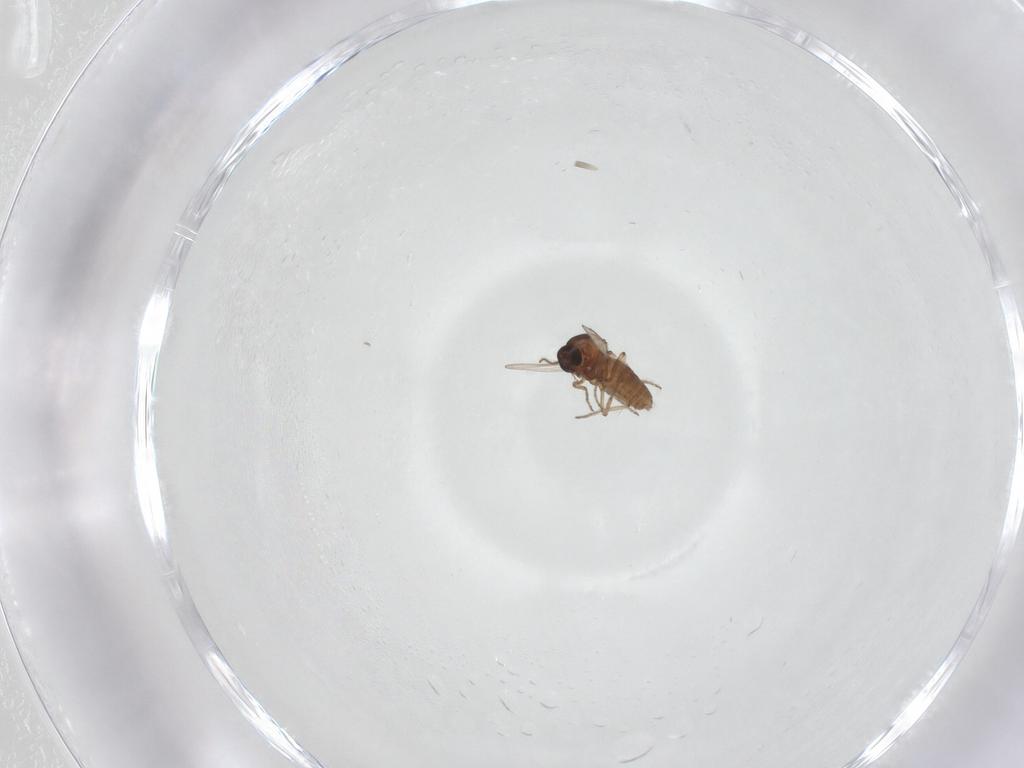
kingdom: Animalia
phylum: Arthropoda
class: Insecta
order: Diptera
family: Ceratopogonidae
